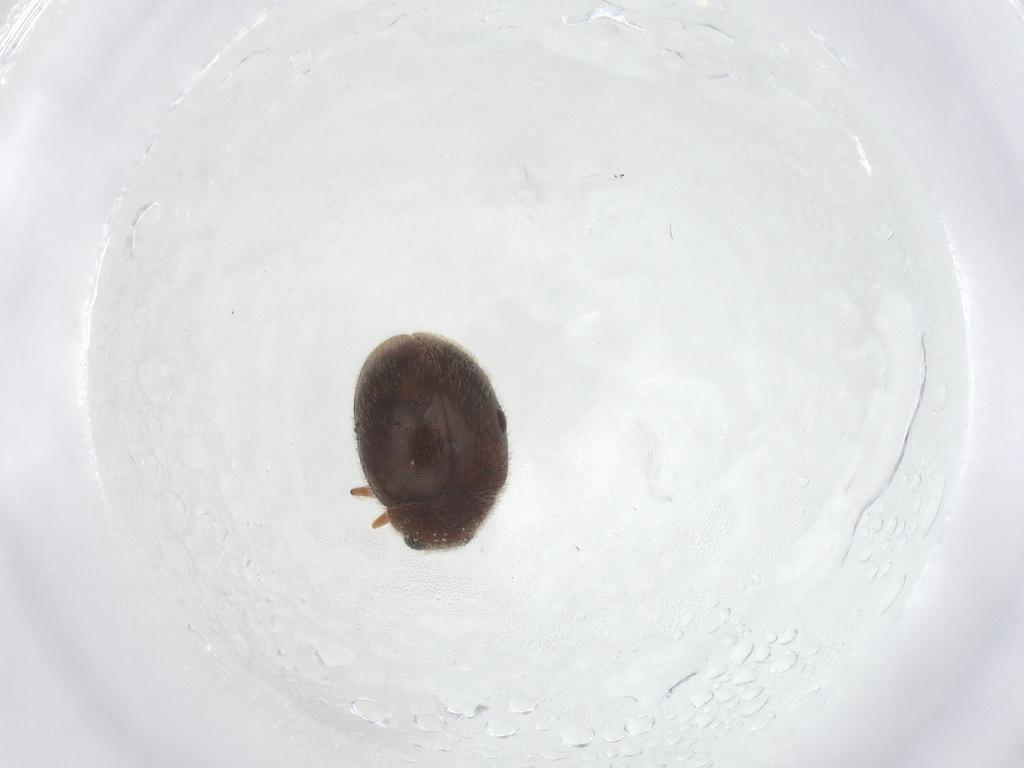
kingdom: Animalia
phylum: Arthropoda
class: Insecta
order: Coleoptera
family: Coccinellidae
